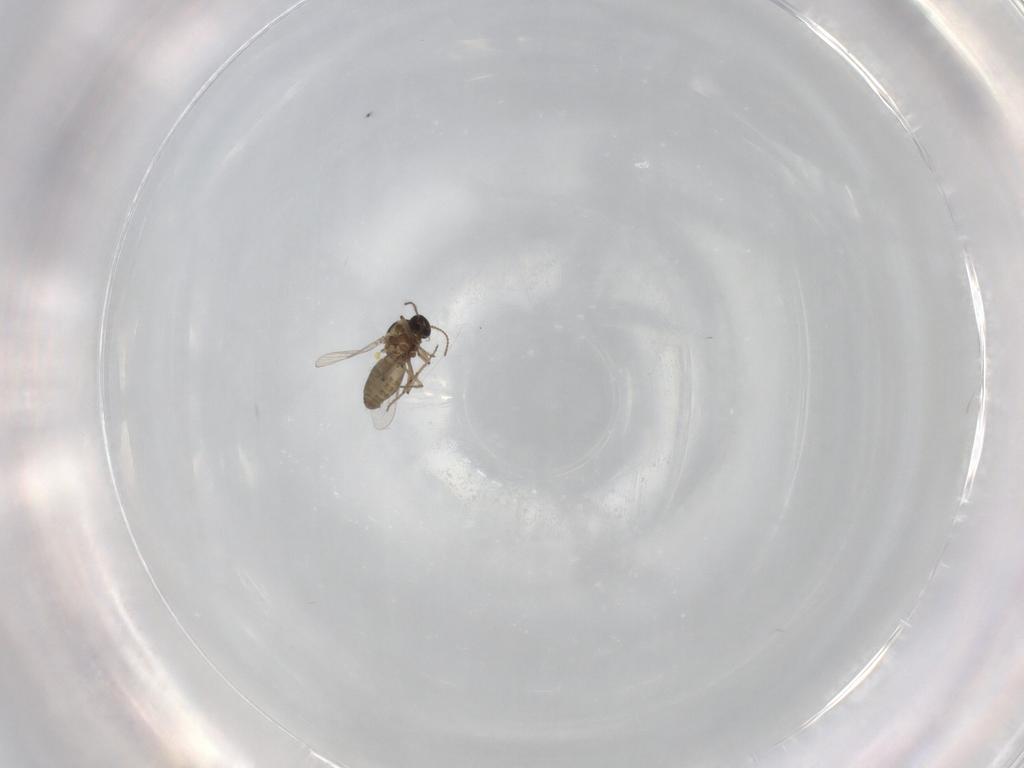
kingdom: Animalia
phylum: Arthropoda
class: Insecta
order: Diptera
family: Ceratopogonidae
